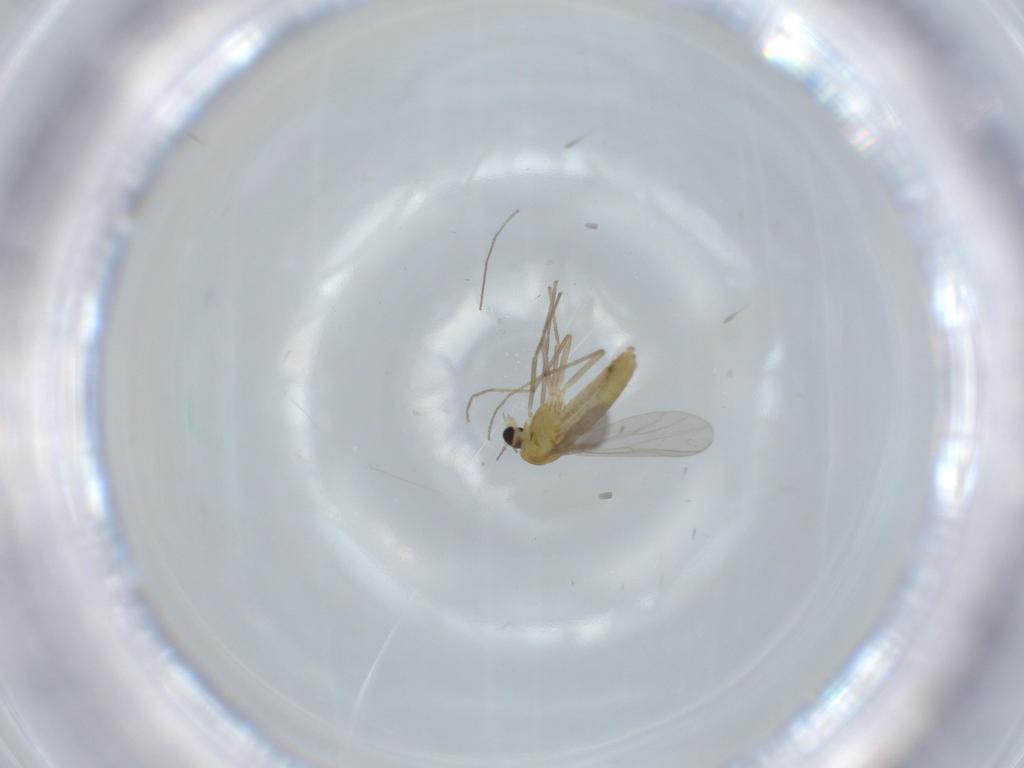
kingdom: Animalia
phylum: Arthropoda
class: Insecta
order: Diptera
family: Chironomidae
